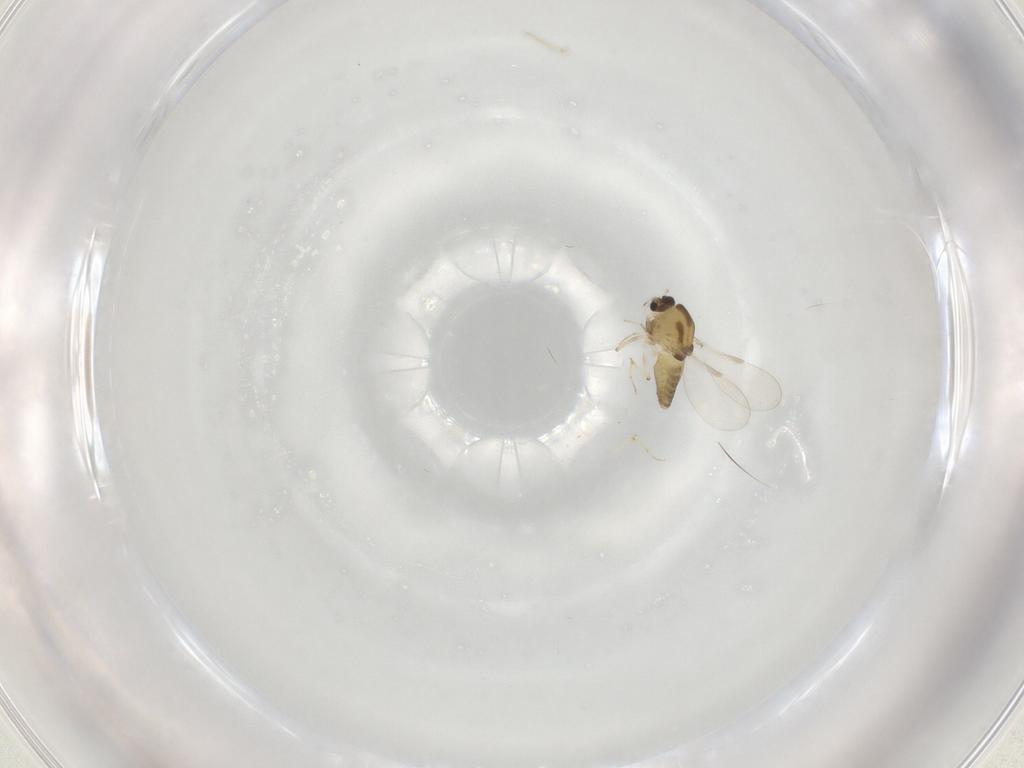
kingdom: Animalia
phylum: Arthropoda
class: Insecta
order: Diptera
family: Chironomidae
